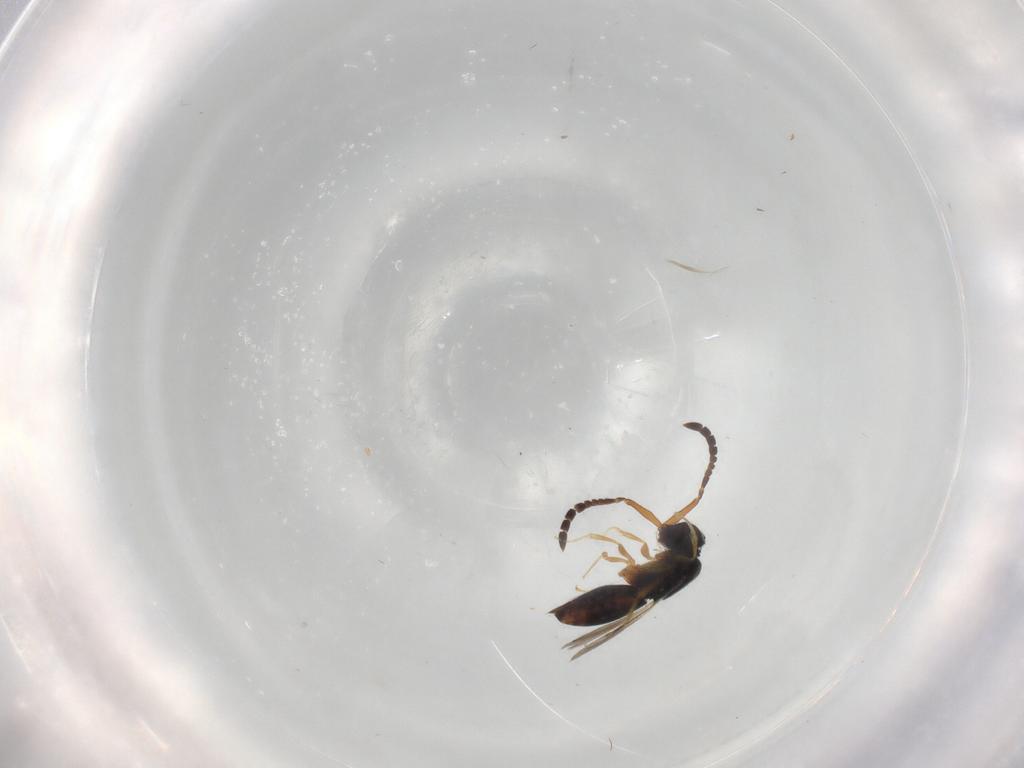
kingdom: Animalia
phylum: Arthropoda
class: Insecta
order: Hymenoptera
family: Ceraphronidae
